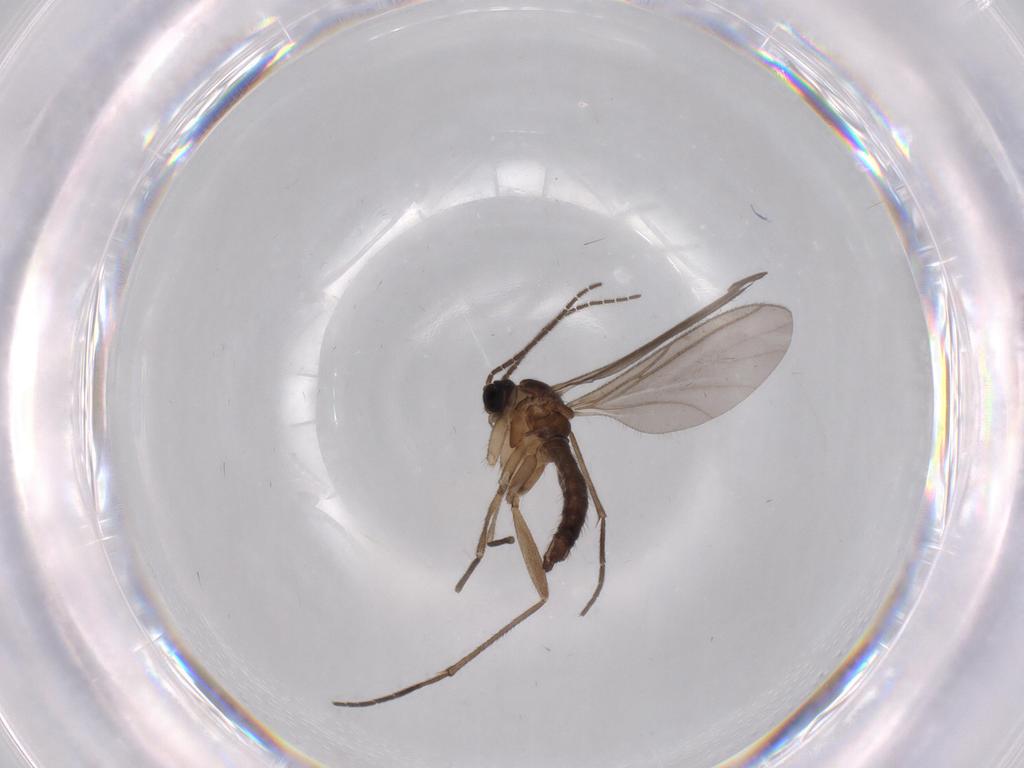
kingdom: Animalia
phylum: Arthropoda
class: Insecta
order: Diptera
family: Sciaridae
